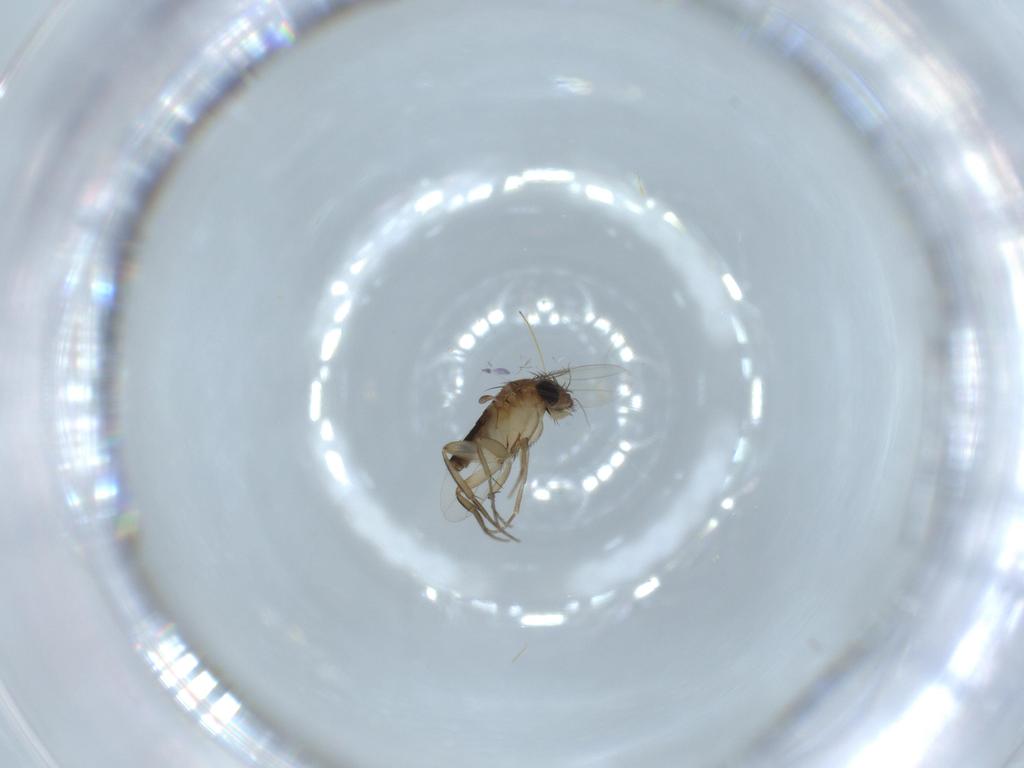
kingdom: Animalia
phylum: Arthropoda
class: Insecta
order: Diptera
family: Phoridae
